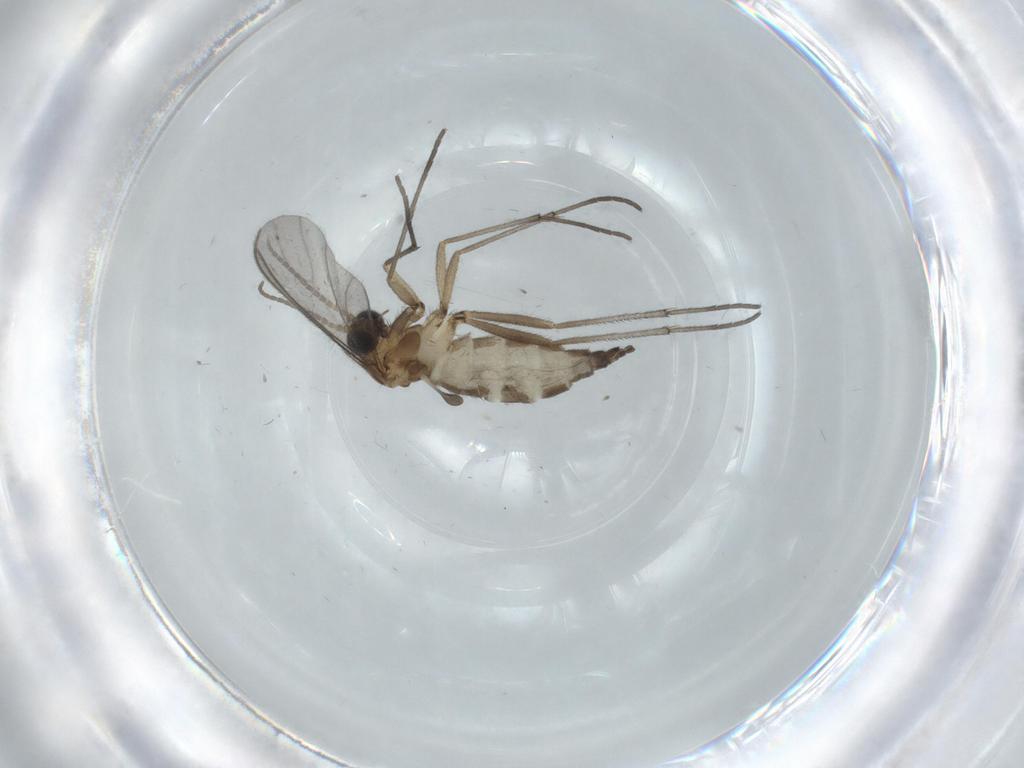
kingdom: Animalia
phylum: Arthropoda
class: Insecta
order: Diptera
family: Sciaridae
